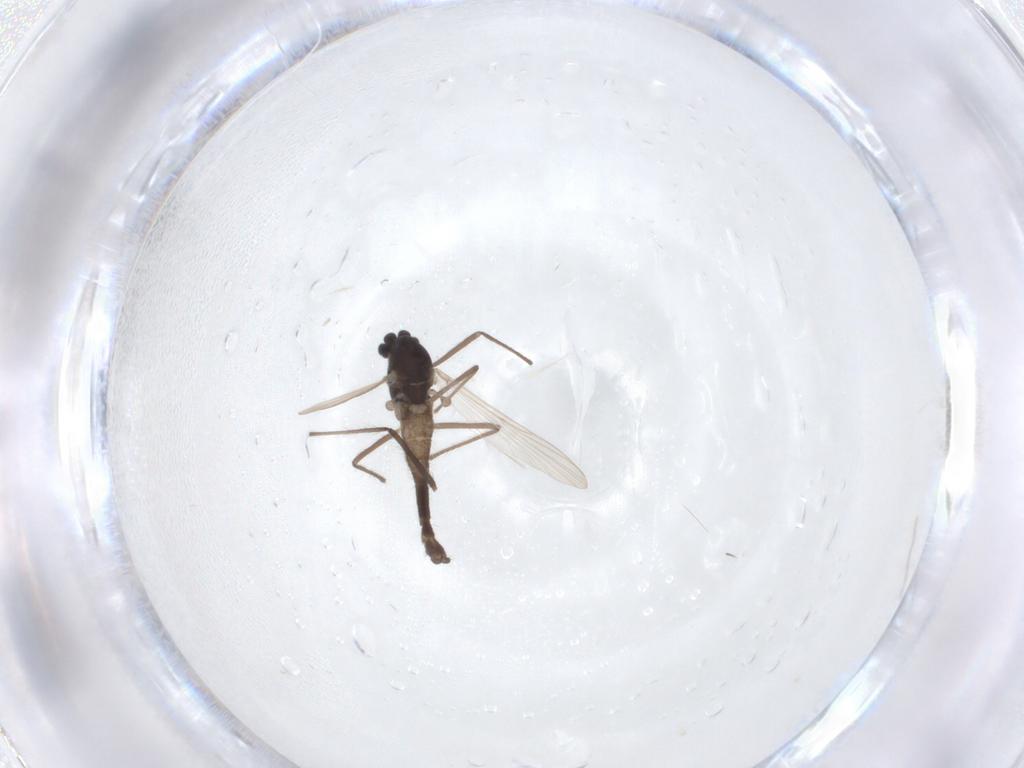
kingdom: Animalia
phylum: Arthropoda
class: Insecta
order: Diptera
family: Chironomidae
